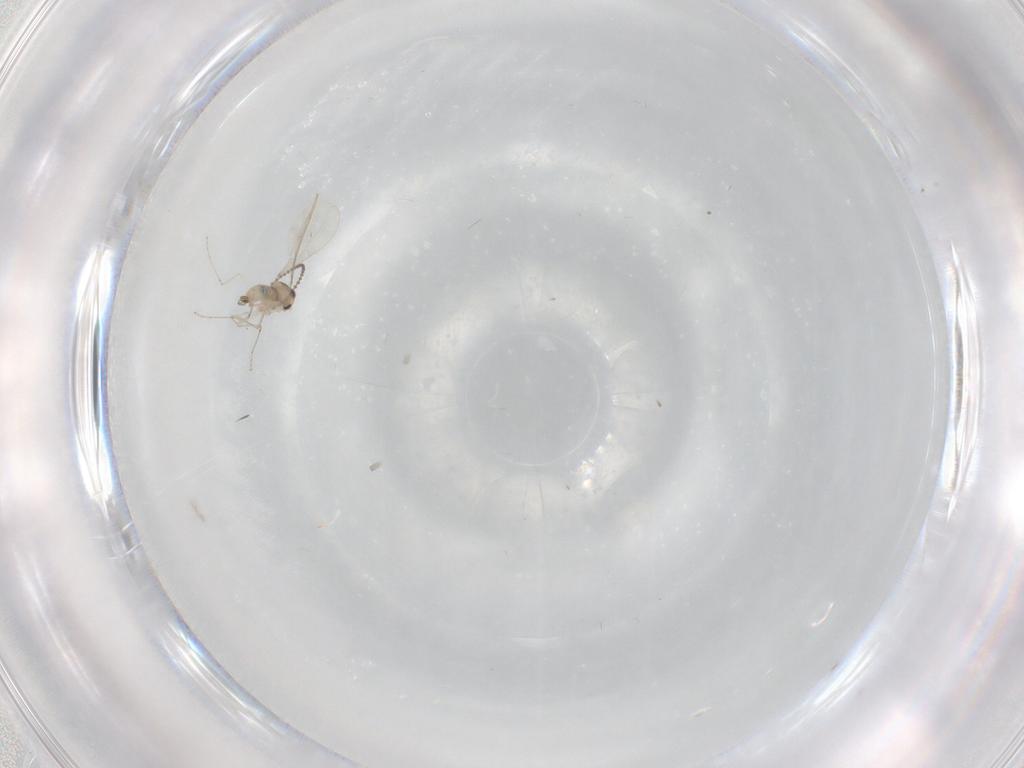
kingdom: Animalia
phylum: Arthropoda
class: Insecta
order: Diptera
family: Cecidomyiidae
